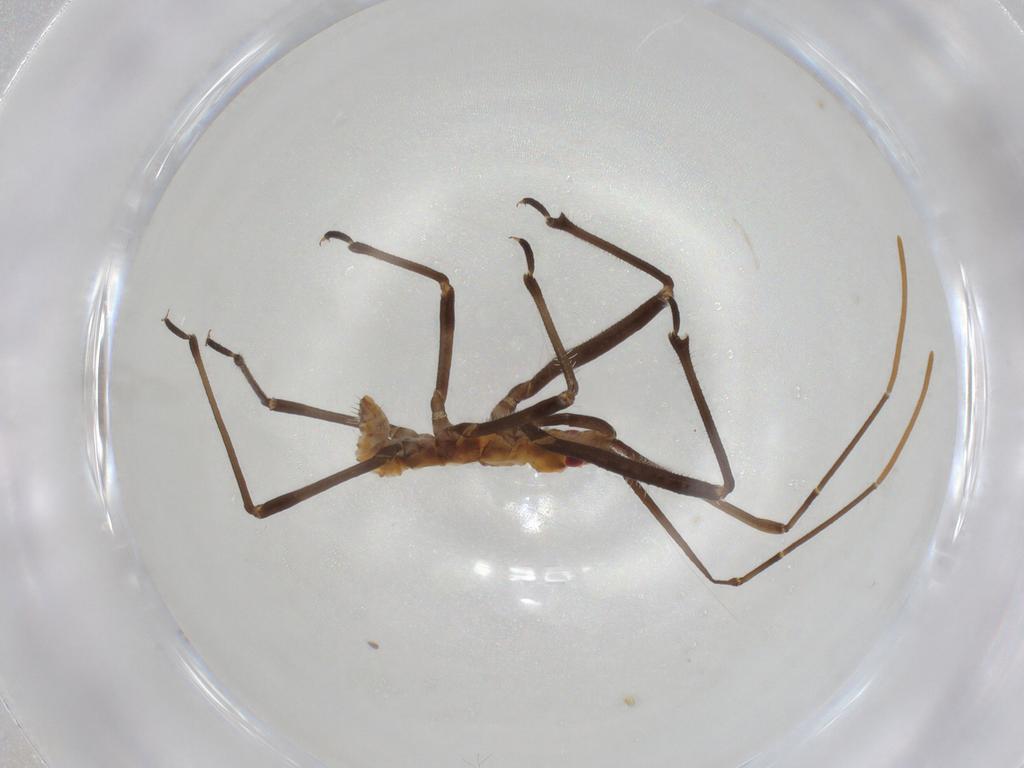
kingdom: Animalia
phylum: Arthropoda
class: Insecta
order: Hemiptera
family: Aleyrodidae
